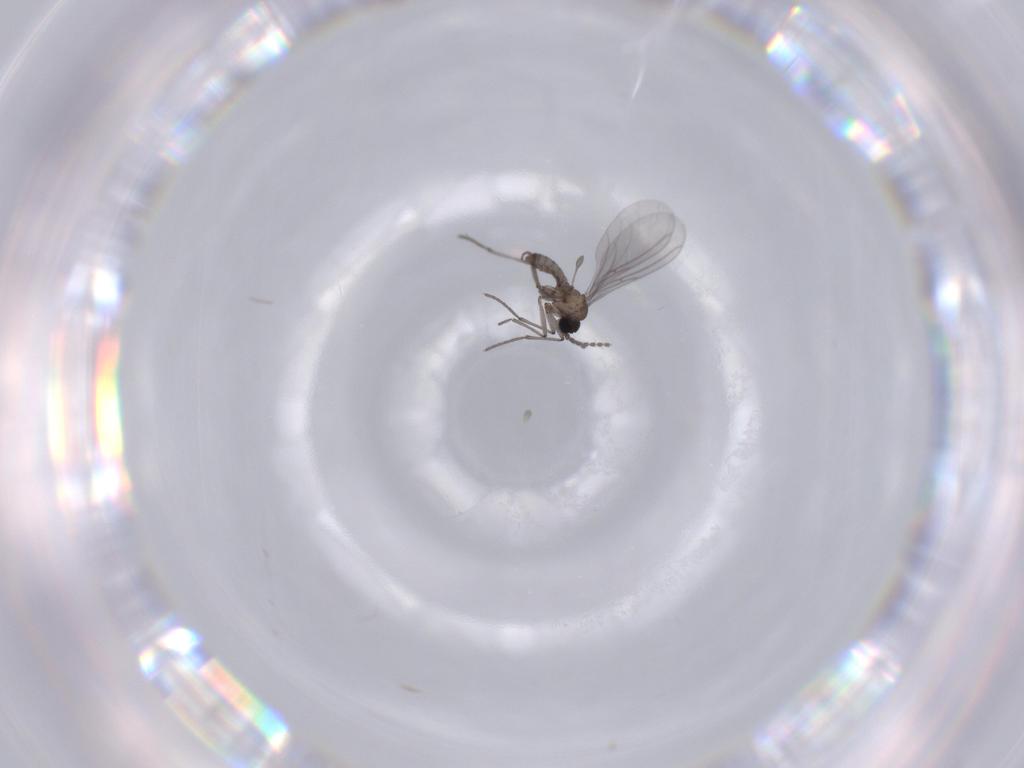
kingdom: Animalia
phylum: Arthropoda
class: Insecta
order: Diptera
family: Sciaridae
